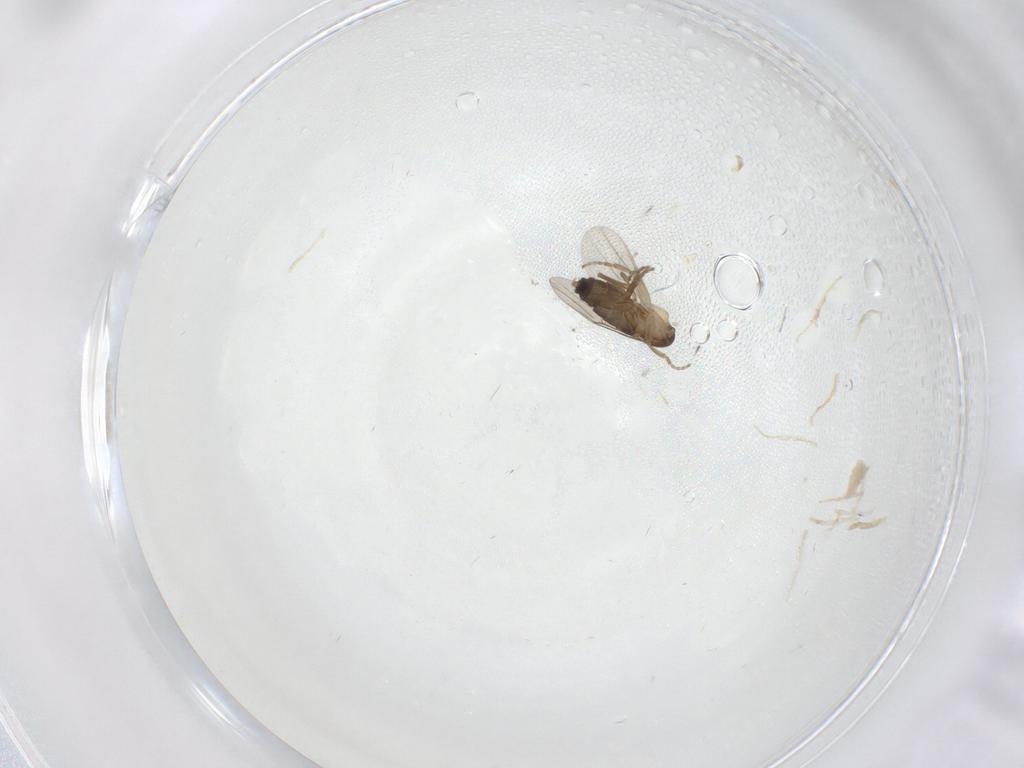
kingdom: Animalia
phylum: Arthropoda
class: Insecta
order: Diptera
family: Phoridae
